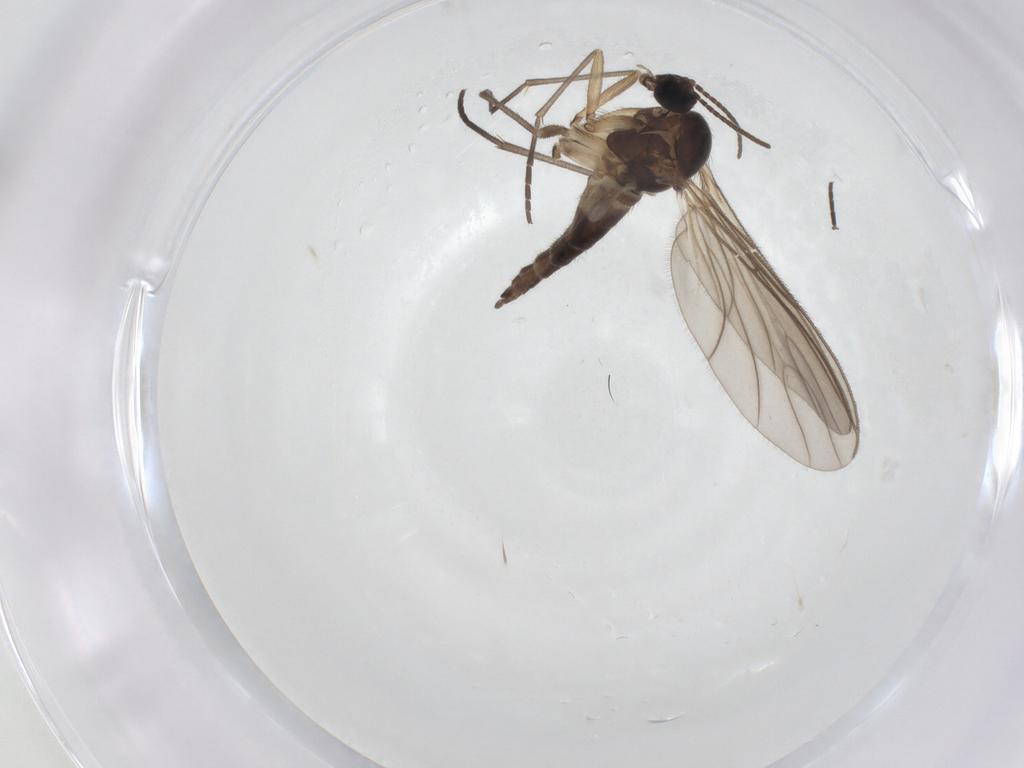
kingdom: Animalia
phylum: Arthropoda
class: Insecta
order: Diptera
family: Sciaridae
